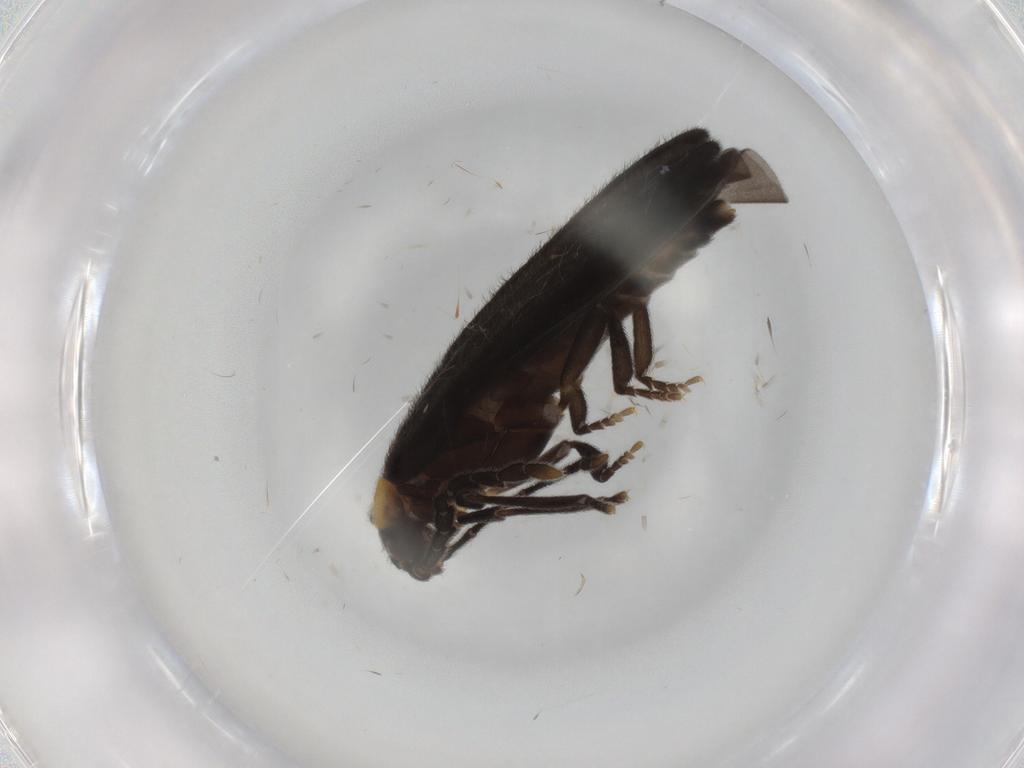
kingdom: Animalia
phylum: Arthropoda
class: Insecta
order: Coleoptera
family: Lycidae
